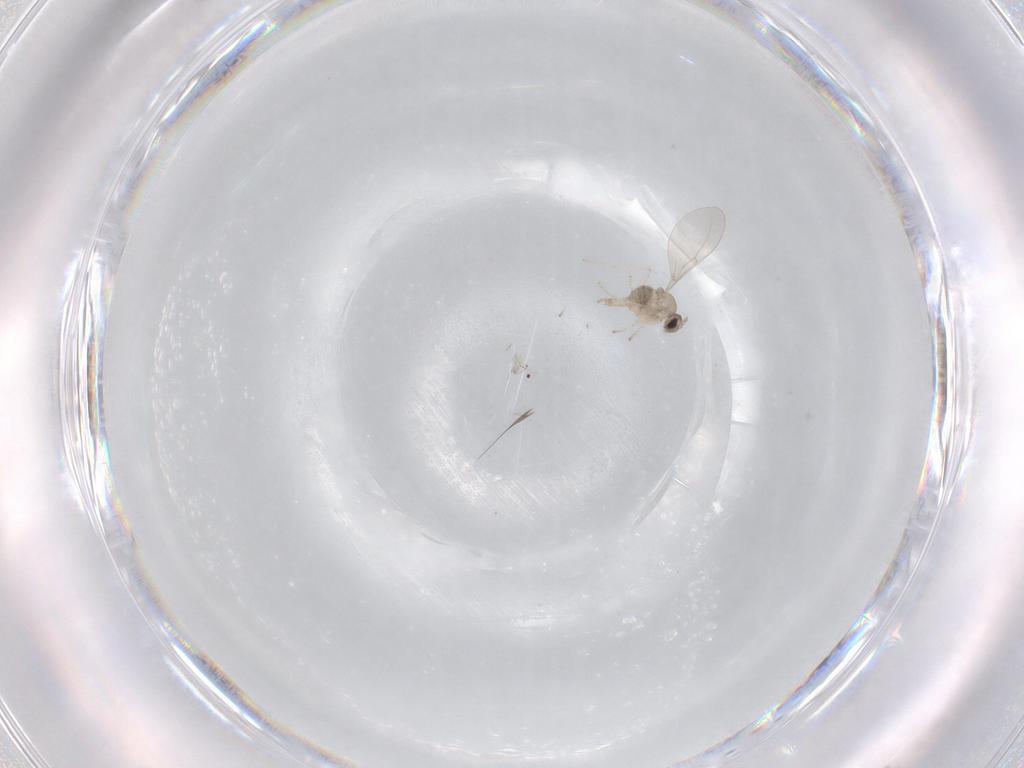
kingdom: Animalia
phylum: Arthropoda
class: Insecta
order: Diptera
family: Cecidomyiidae
